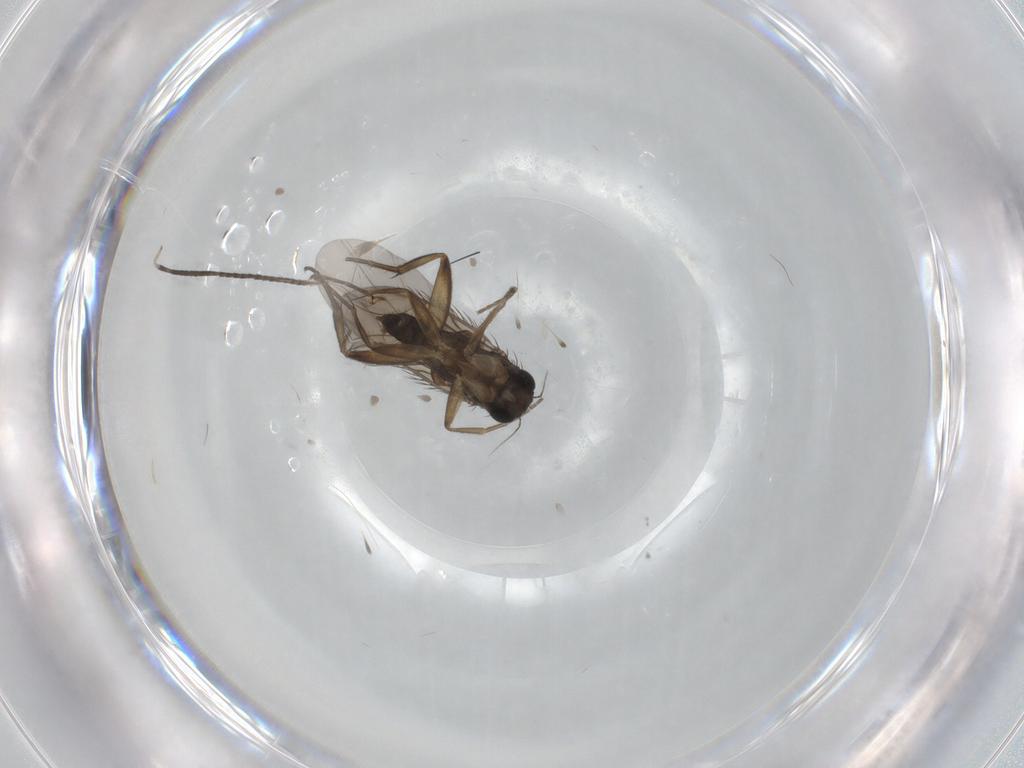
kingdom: Animalia
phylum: Arthropoda
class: Insecta
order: Diptera
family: Phoridae
